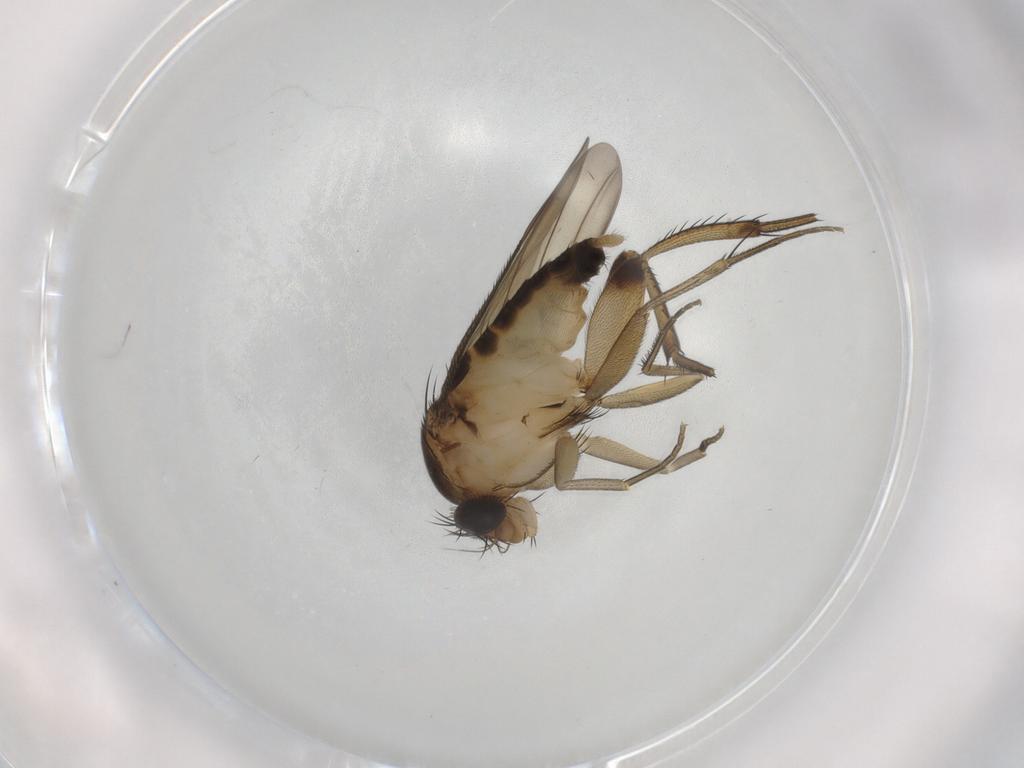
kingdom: Animalia
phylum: Arthropoda
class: Insecta
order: Diptera
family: Phoridae
